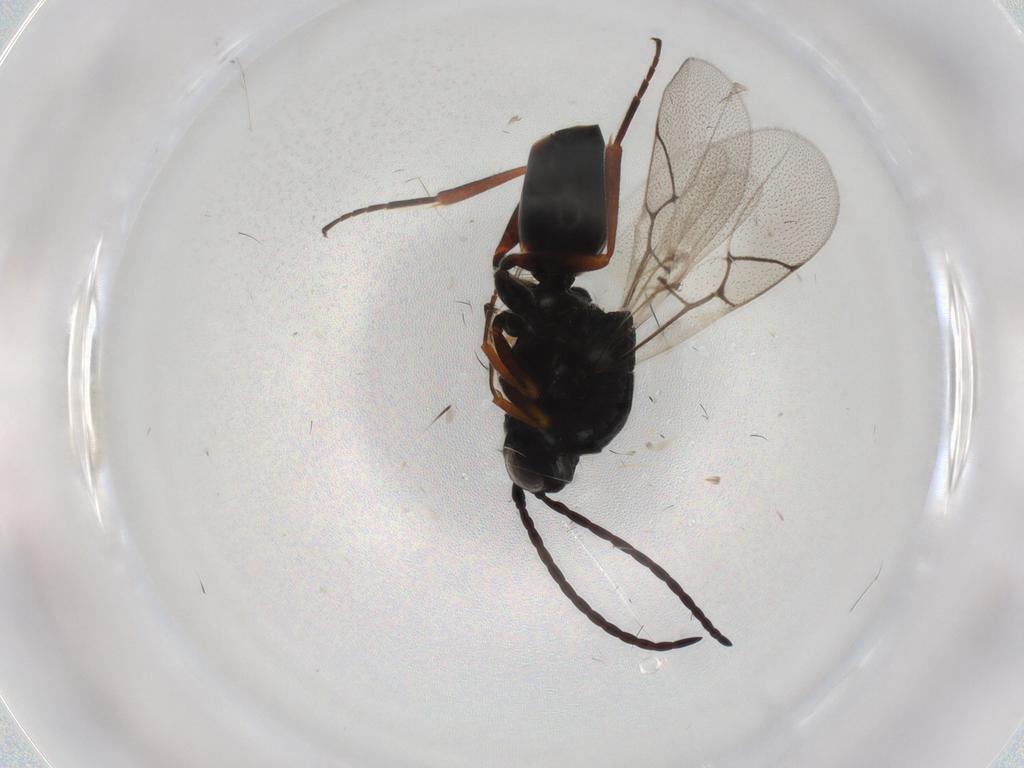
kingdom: Animalia
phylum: Arthropoda
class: Insecta
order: Hymenoptera
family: Figitidae
